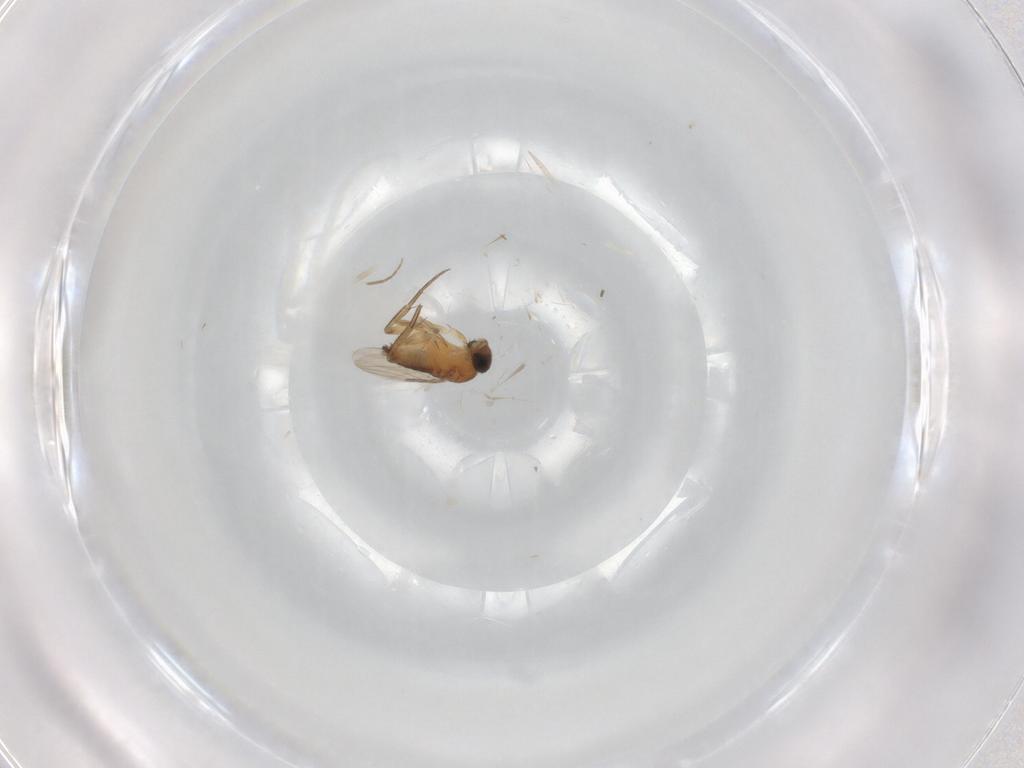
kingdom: Animalia
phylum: Arthropoda
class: Insecta
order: Diptera
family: Phoridae
